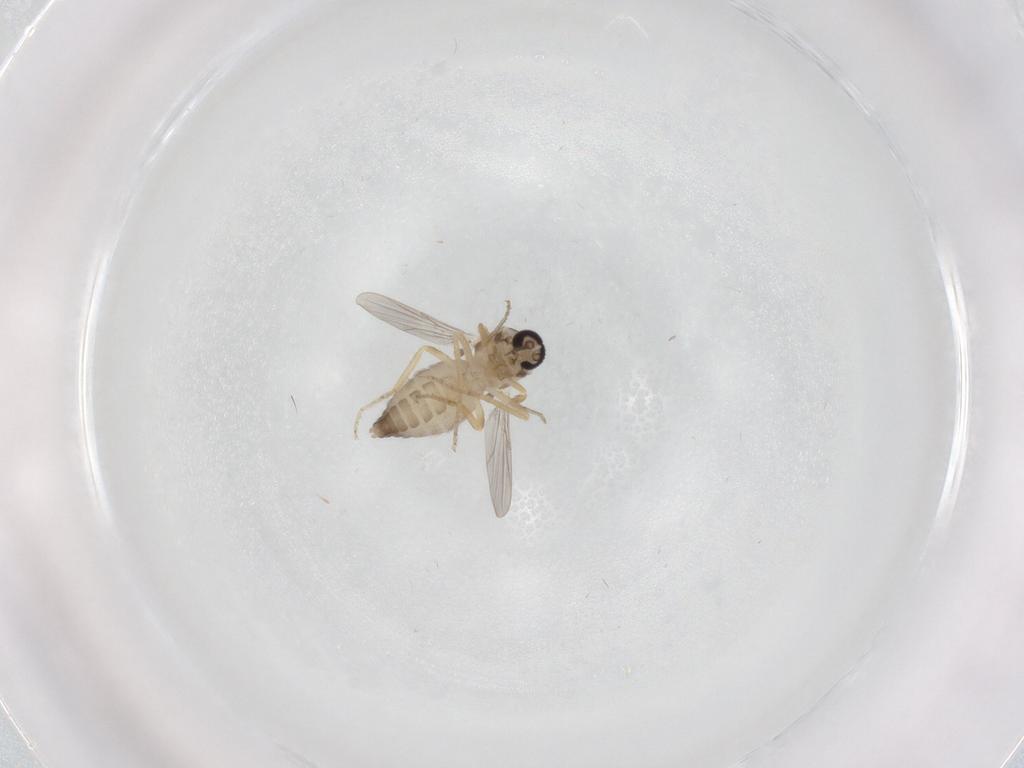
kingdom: Animalia
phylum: Arthropoda
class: Insecta
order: Diptera
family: Ceratopogonidae
